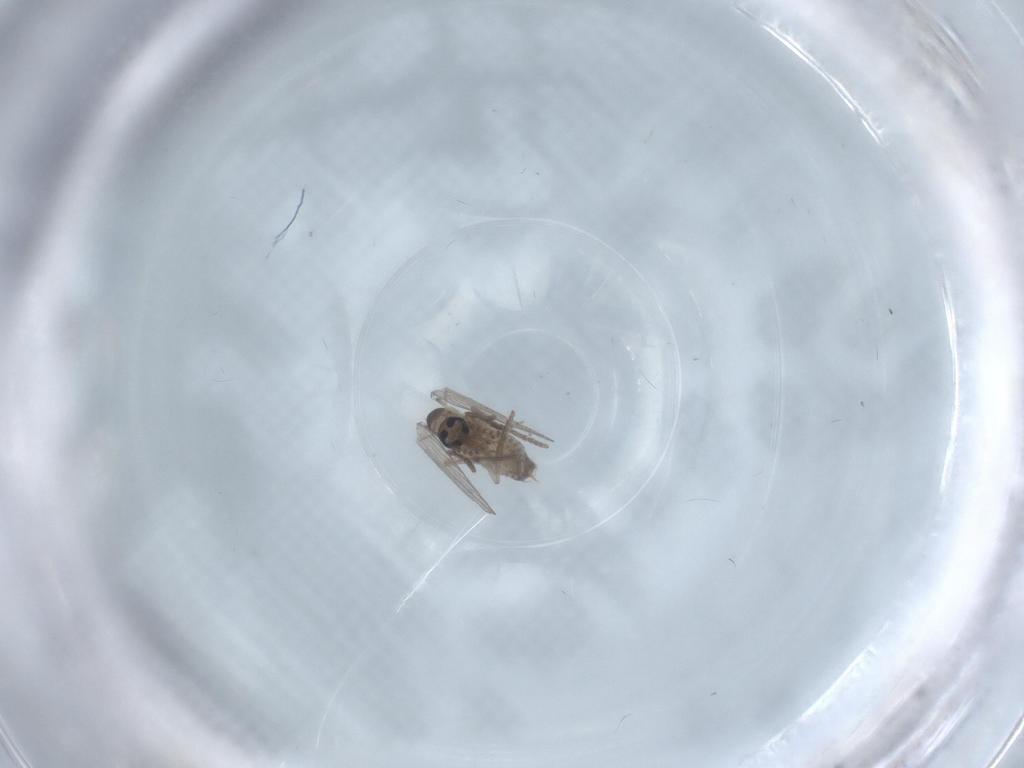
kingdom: Animalia
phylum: Arthropoda
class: Insecta
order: Diptera
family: Psychodidae
